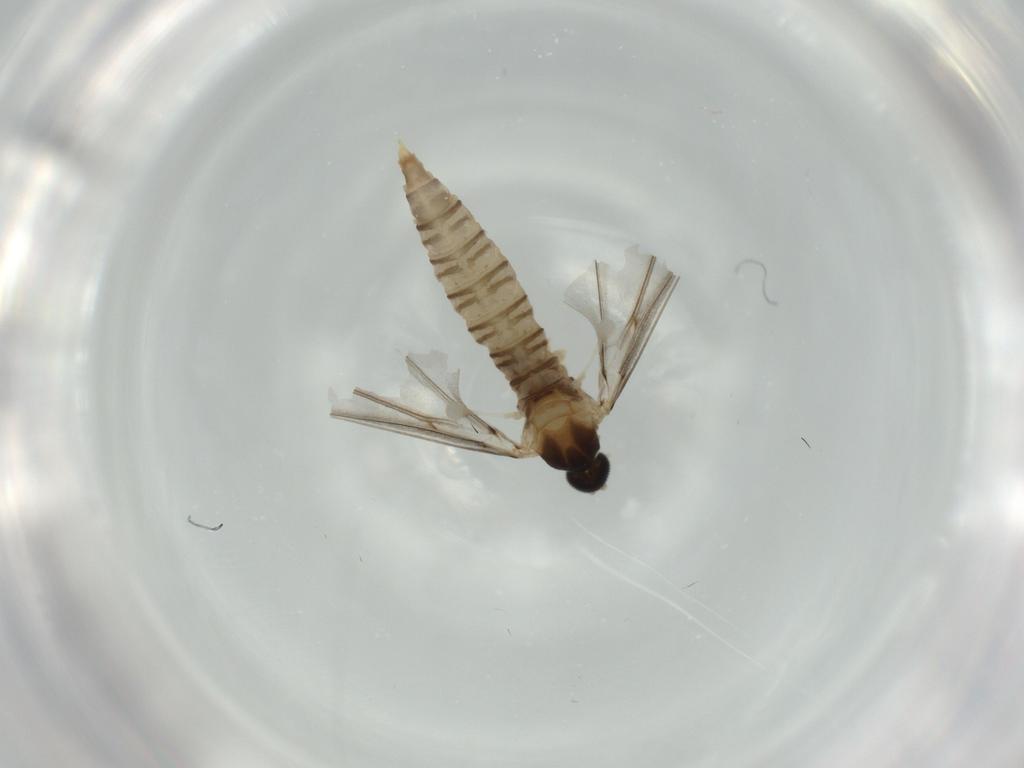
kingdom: Animalia
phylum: Arthropoda
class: Insecta
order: Diptera
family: Cecidomyiidae
